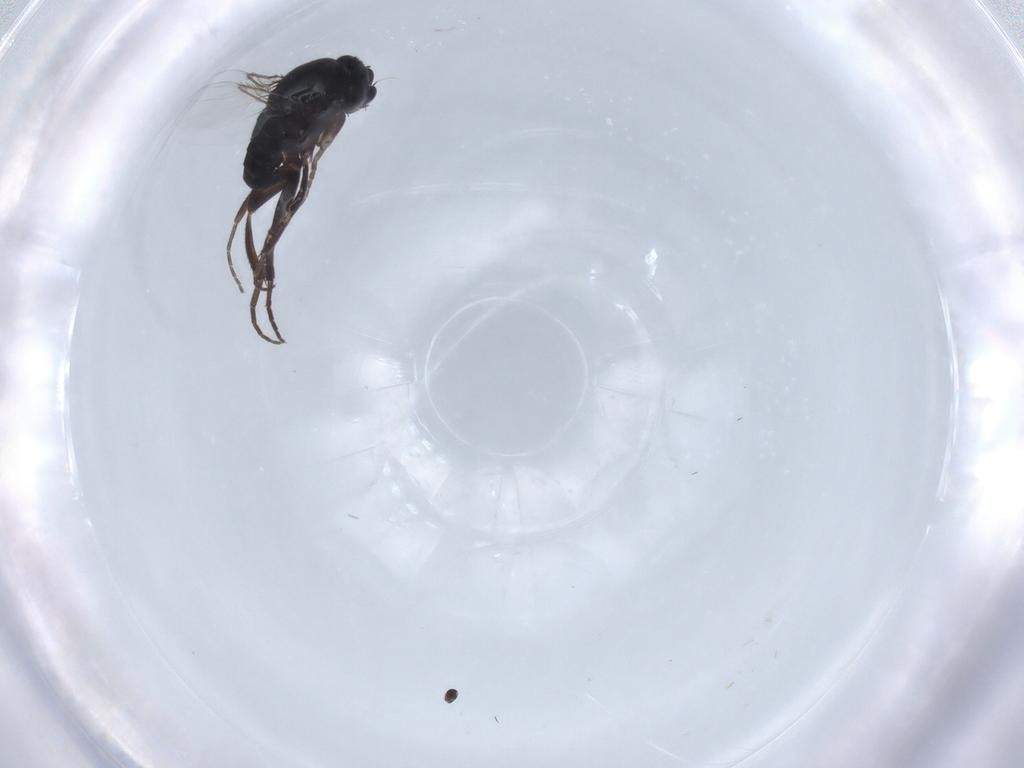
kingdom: Animalia
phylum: Arthropoda
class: Insecta
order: Diptera
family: Phoridae
